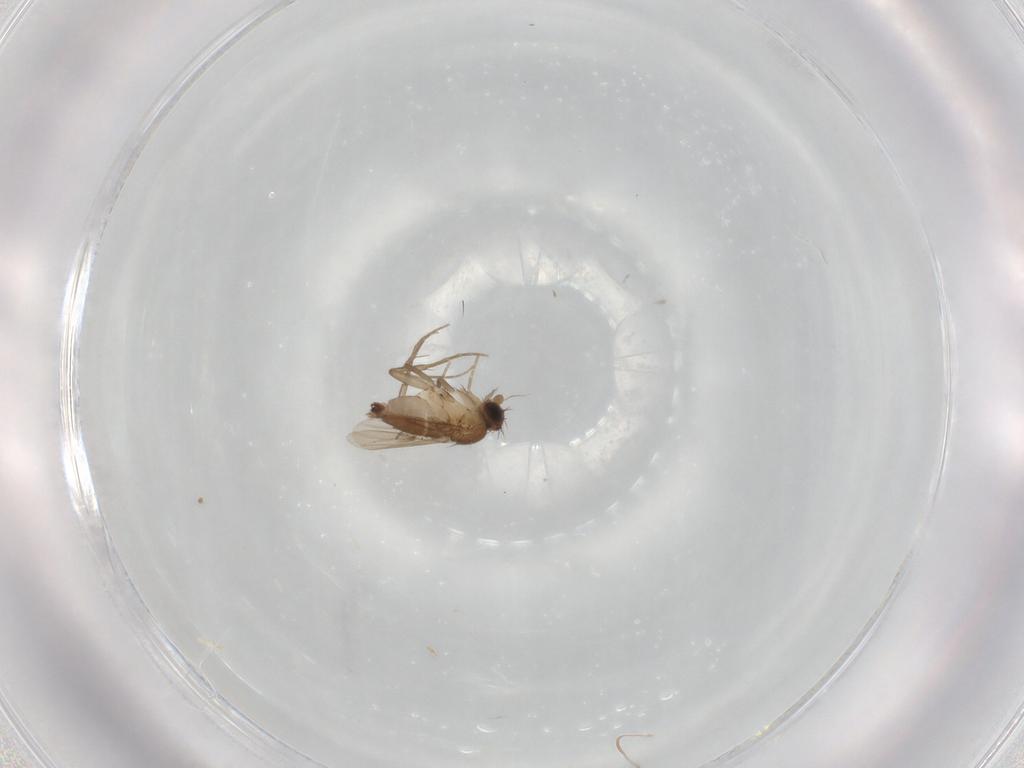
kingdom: Animalia
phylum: Arthropoda
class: Insecta
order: Diptera
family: Phoridae
